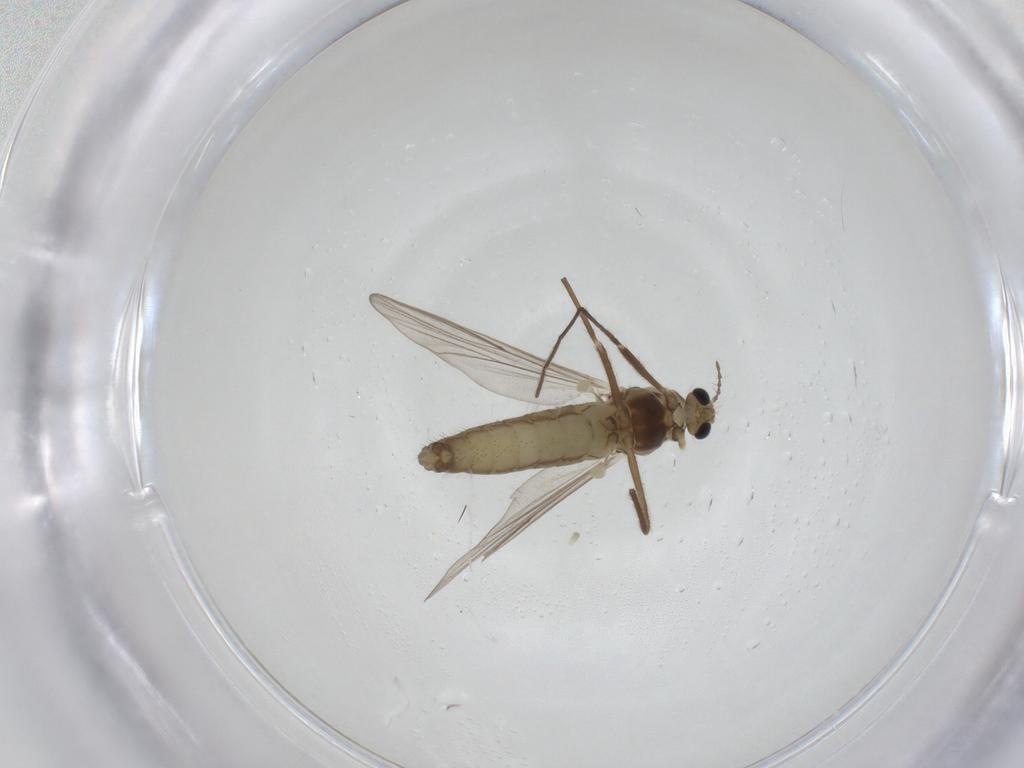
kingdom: Animalia
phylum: Arthropoda
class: Insecta
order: Diptera
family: Chironomidae
